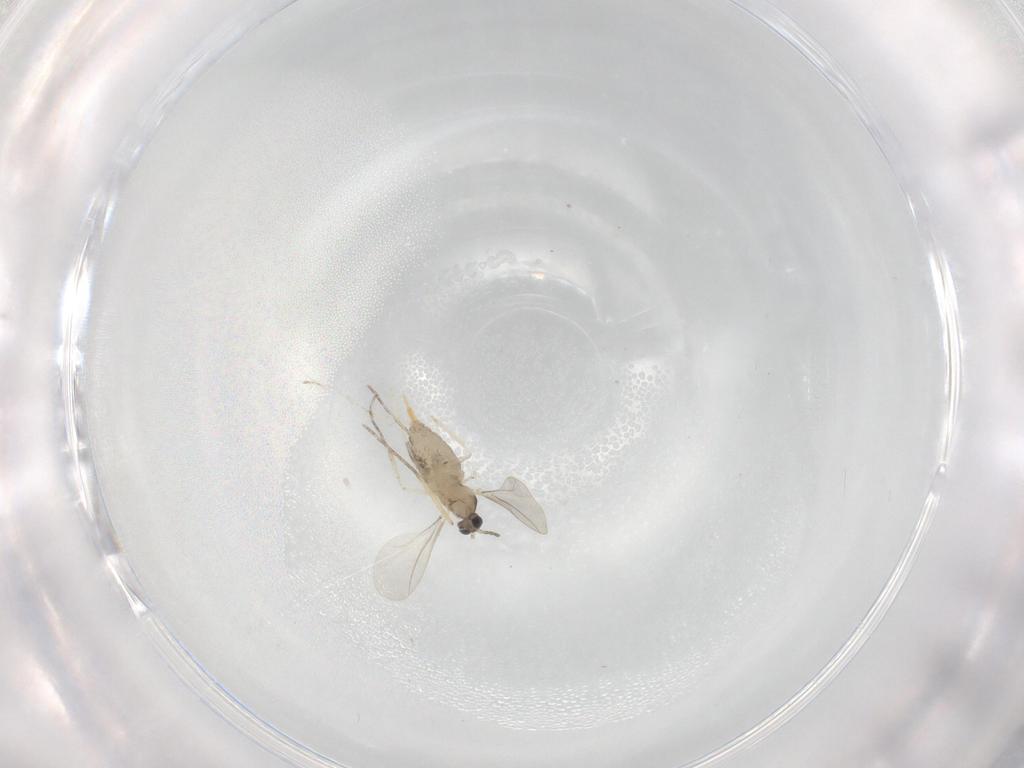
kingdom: Animalia
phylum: Arthropoda
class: Insecta
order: Diptera
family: Cecidomyiidae
